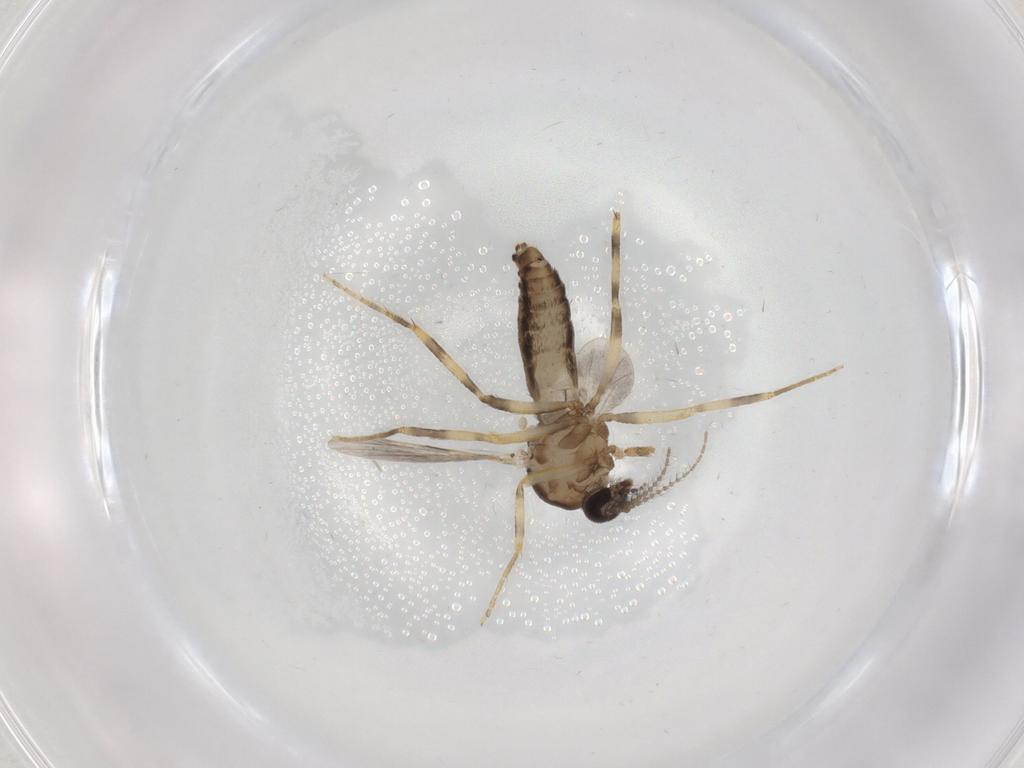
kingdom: Animalia
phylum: Arthropoda
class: Insecta
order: Diptera
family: Ceratopogonidae
